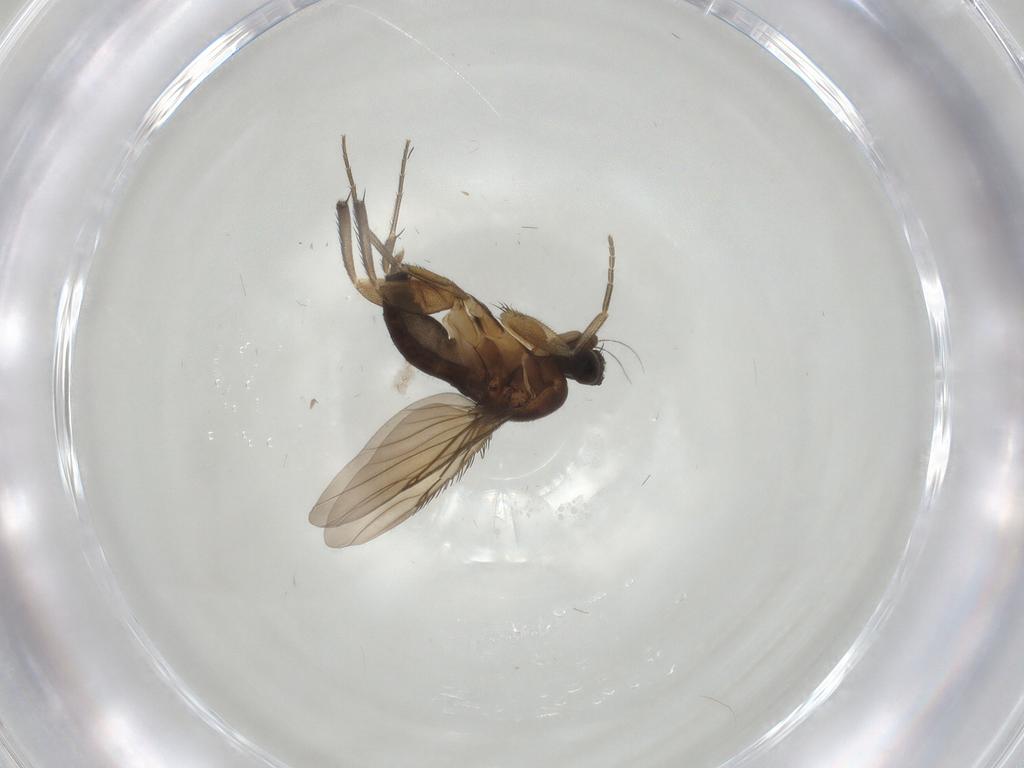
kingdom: Animalia
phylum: Arthropoda
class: Insecta
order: Diptera
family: Phoridae
